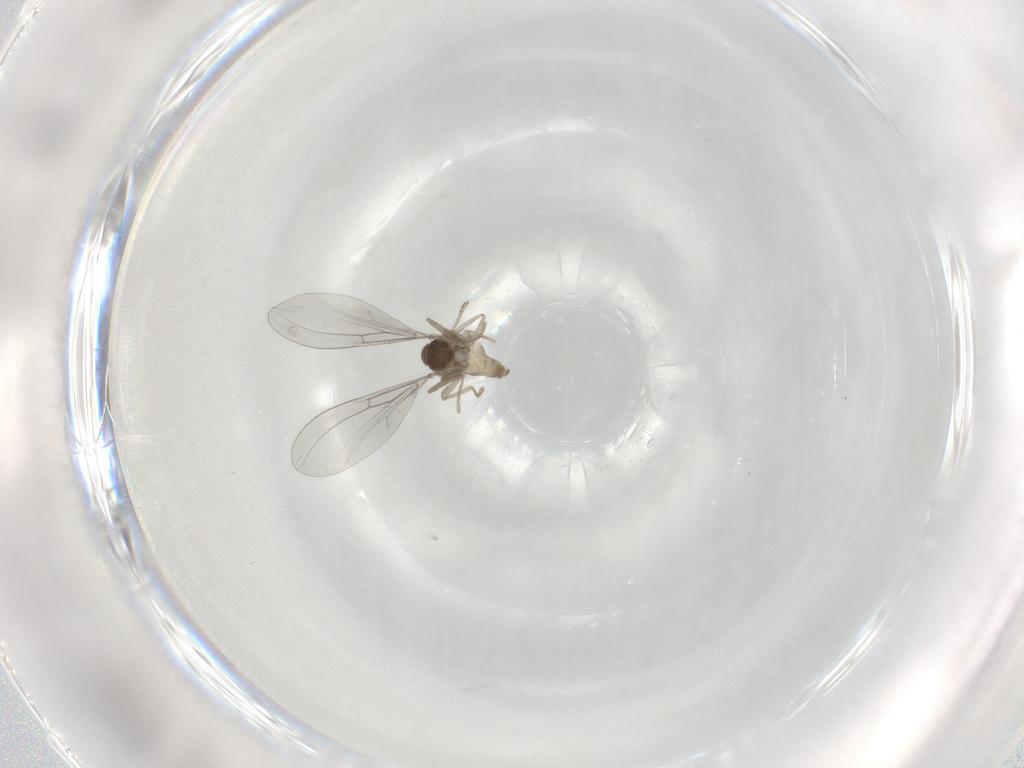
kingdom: Animalia
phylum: Arthropoda
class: Insecta
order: Diptera
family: Cecidomyiidae
